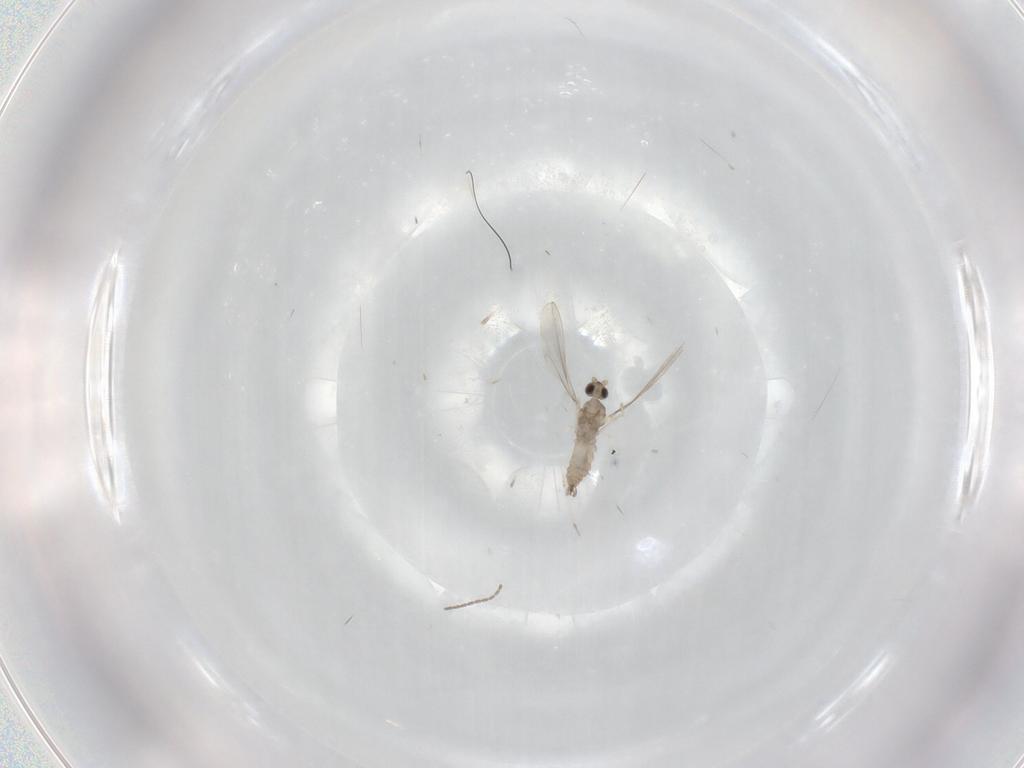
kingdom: Animalia
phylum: Arthropoda
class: Insecta
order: Diptera
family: Cecidomyiidae
